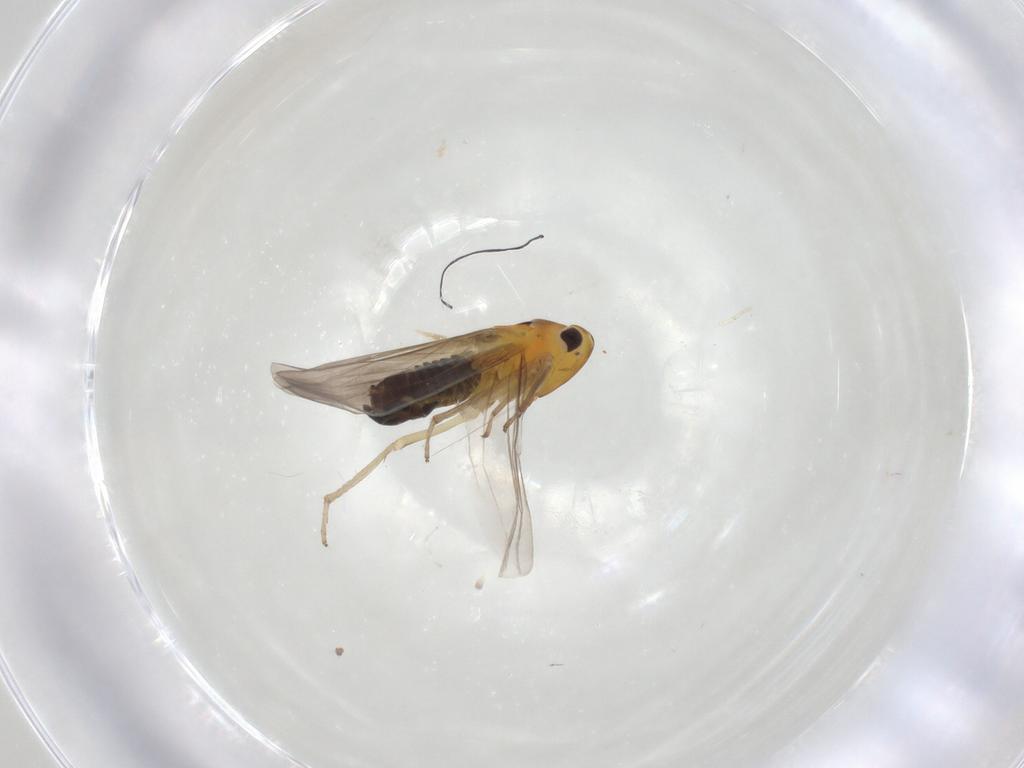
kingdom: Animalia
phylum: Arthropoda
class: Insecta
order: Hemiptera
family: Cicadellidae
